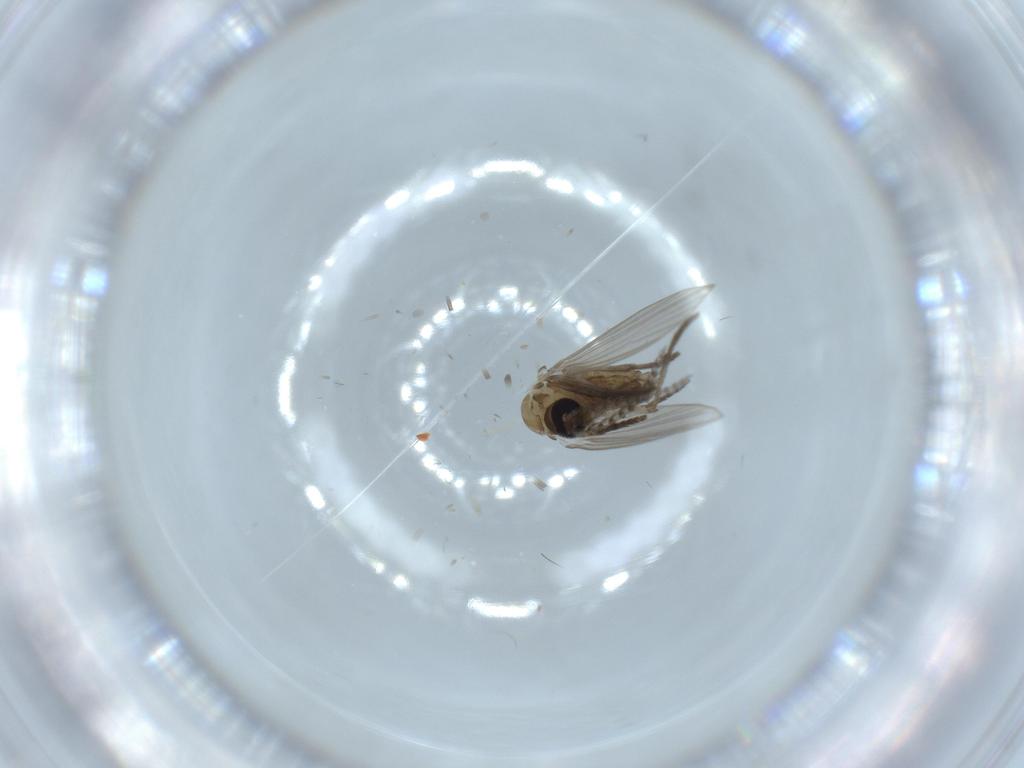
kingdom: Animalia
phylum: Arthropoda
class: Insecta
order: Diptera
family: Psychodidae
